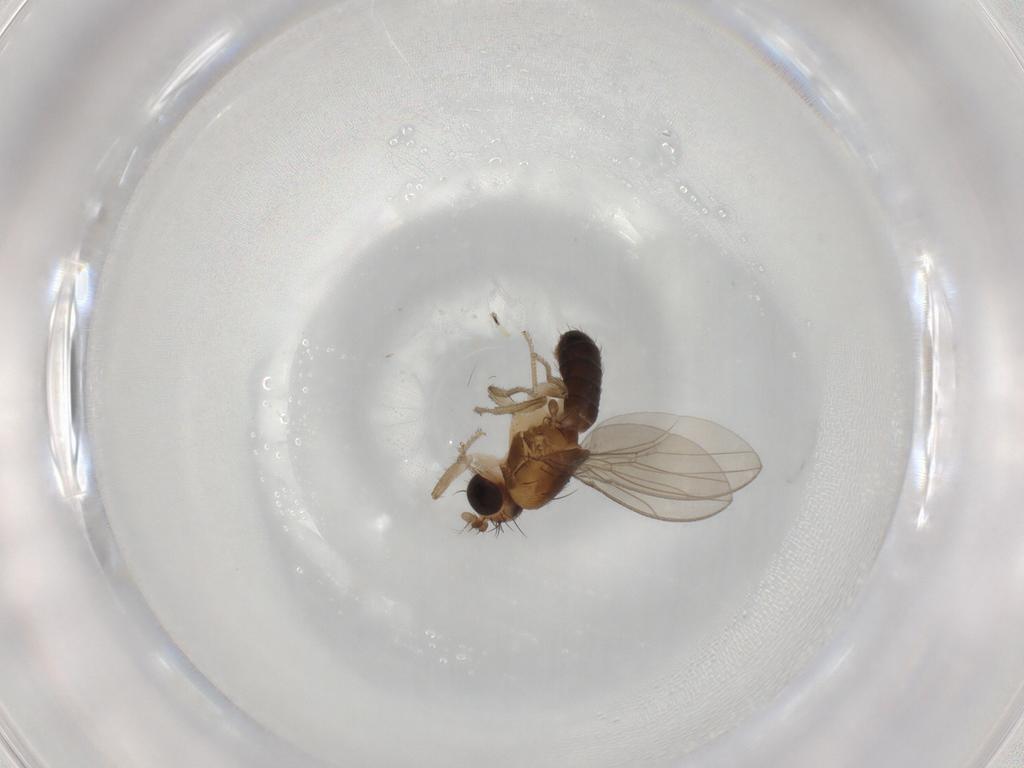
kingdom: Animalia
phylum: Arthropoda
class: Insecta
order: Diptera
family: Drosophilidae
